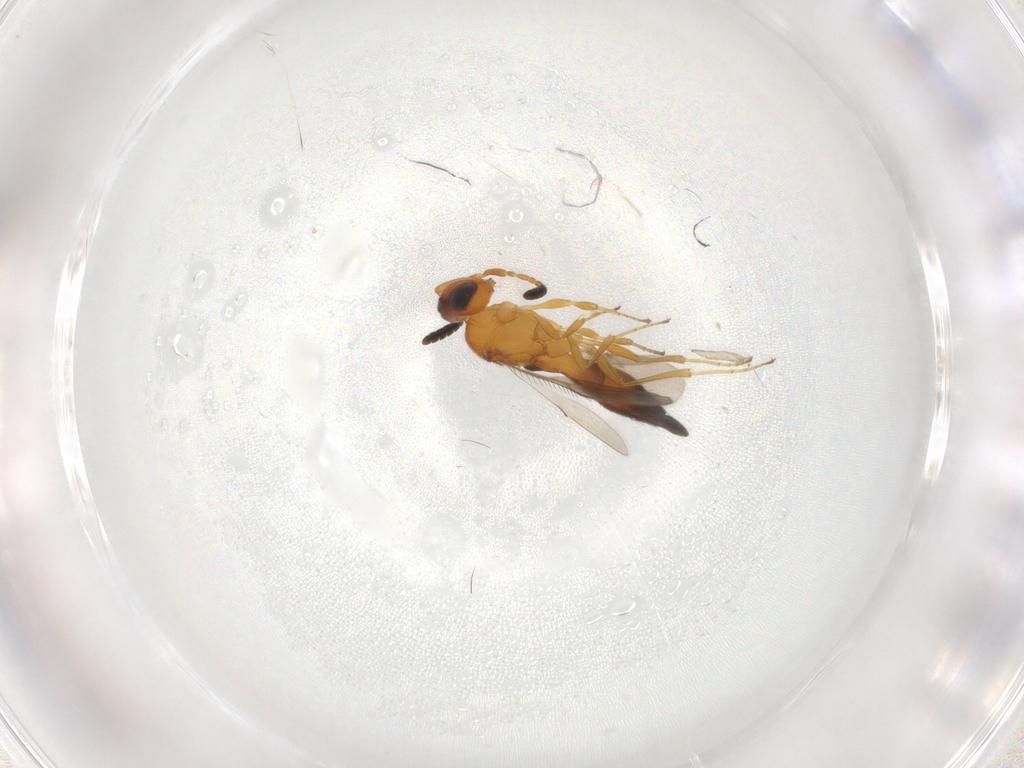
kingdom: Animalia
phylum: Arthropoda
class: Insecta
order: Hymenoptera
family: Scelionidae
